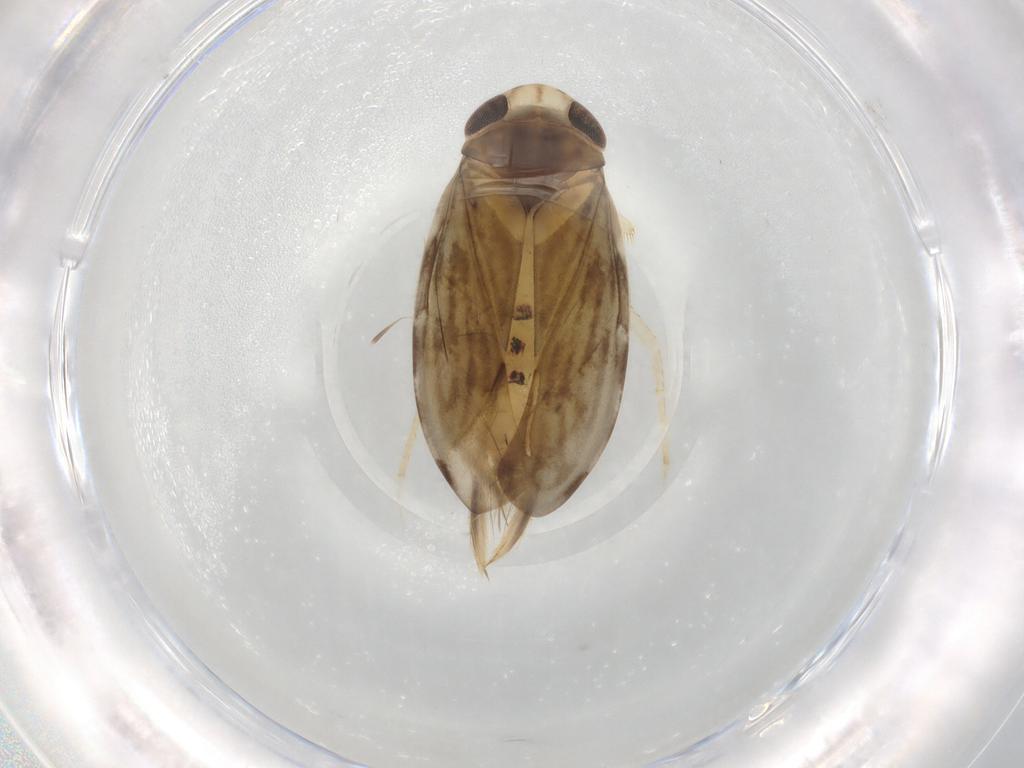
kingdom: Animalia
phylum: Arthropoda
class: Insecta
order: Hemiptera
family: Corixidae
